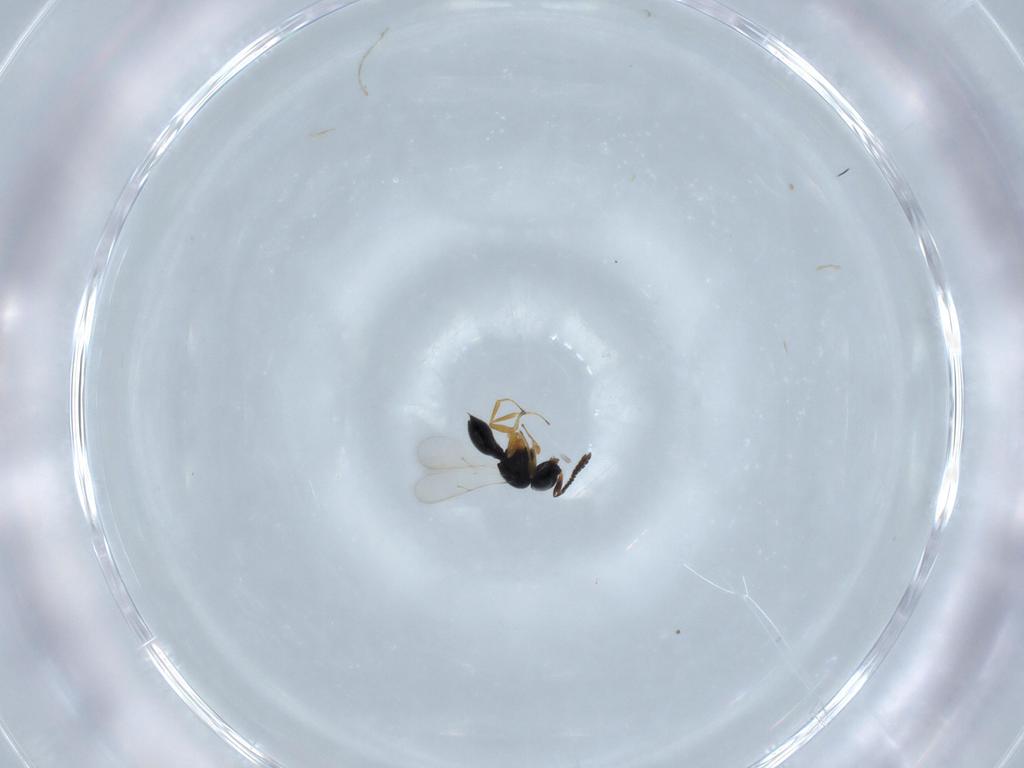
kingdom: Animalia
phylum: Arthropoda
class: Insecta
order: Hymenoptera
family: Scelionidae
